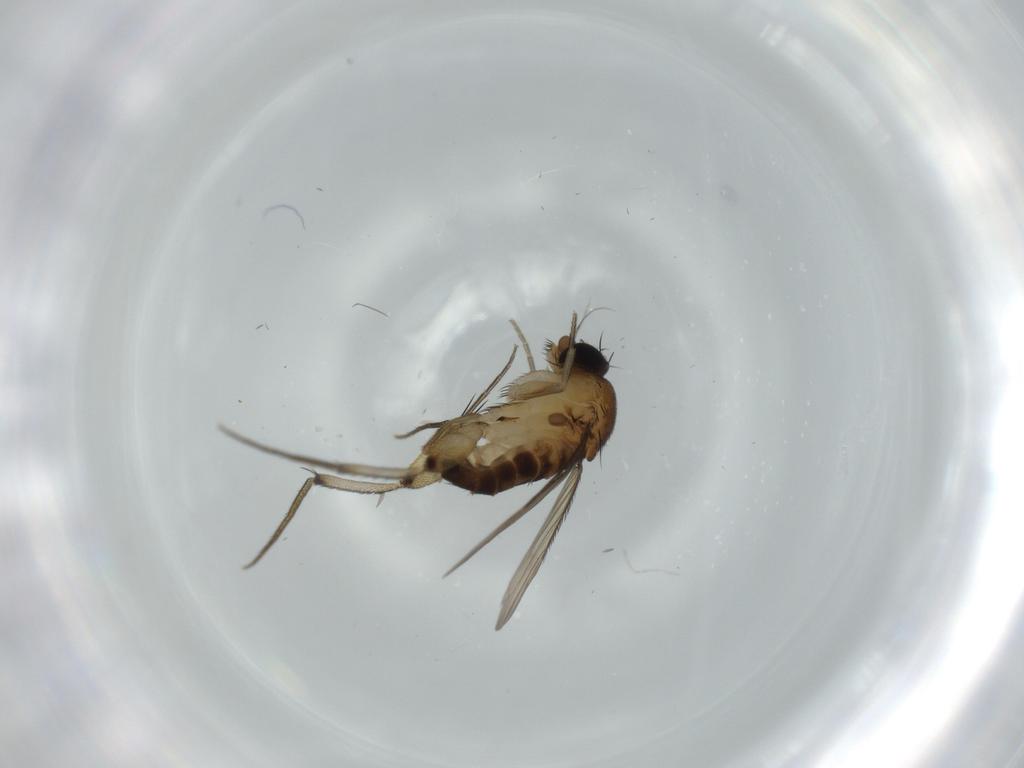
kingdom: Animalia
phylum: Arthropoda
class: Insecta
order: Diptera
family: Phoridae
